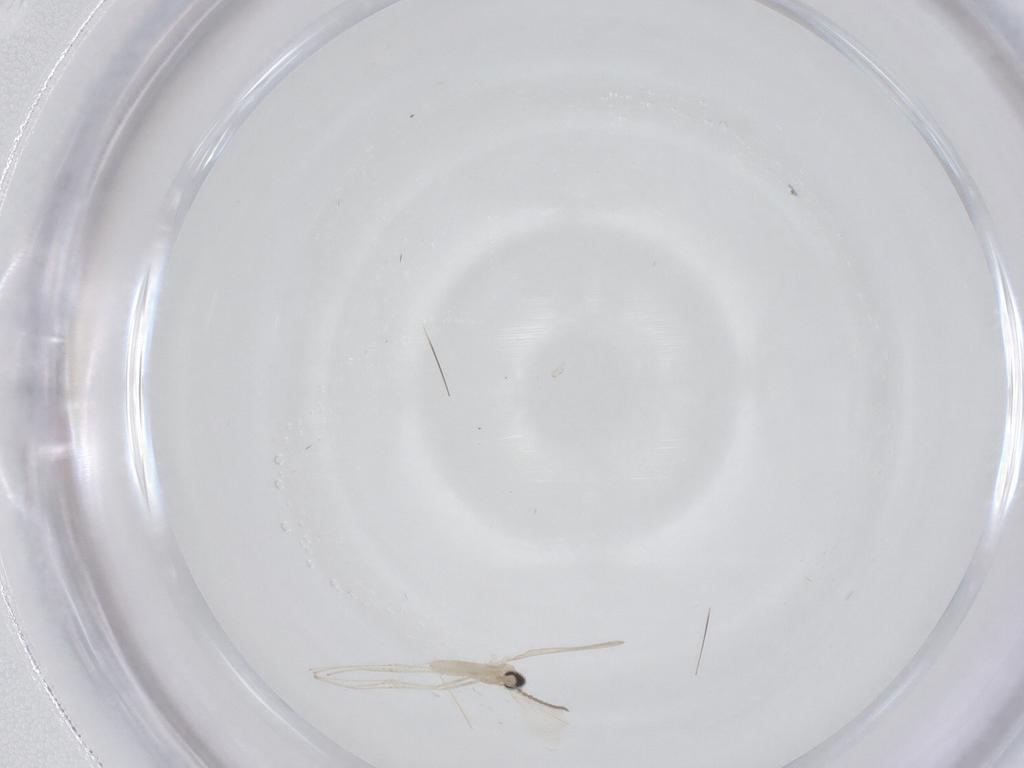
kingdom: Animalia
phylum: Arthropoda
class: Insecta
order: Diptera
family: Cecidomyiidae
